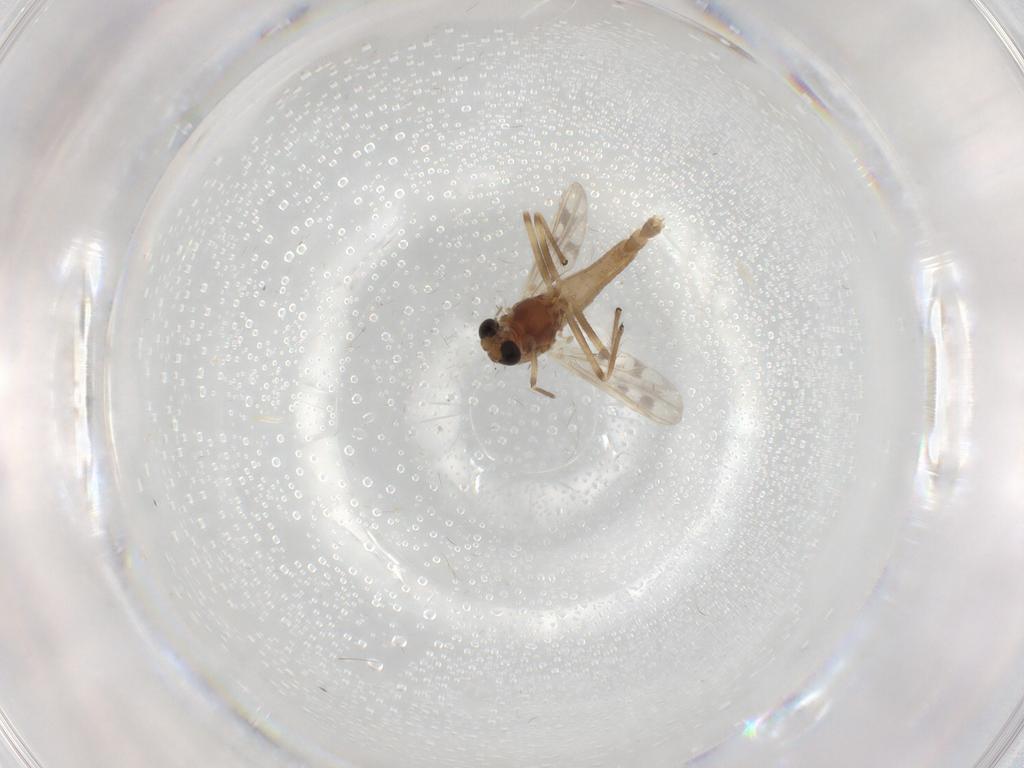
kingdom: Animalia
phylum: Arthropoda
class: Insecta
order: Diptera
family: Chironomidae
